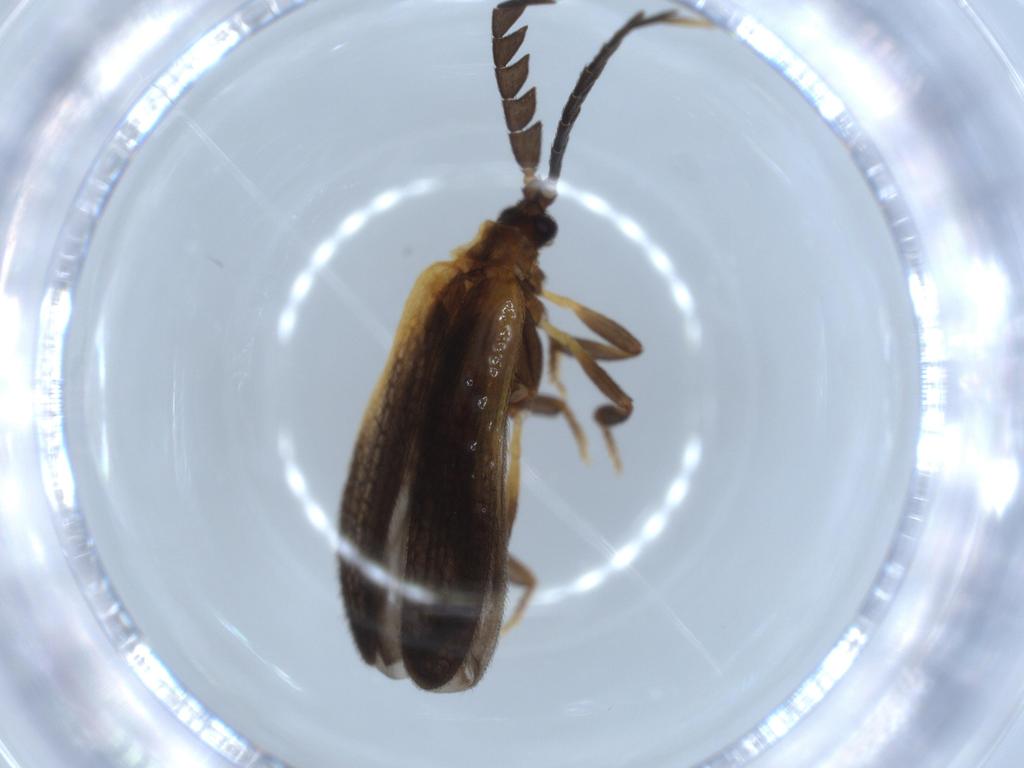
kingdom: Animalia
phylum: Arthropoda
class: Insecta
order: Coleoptera
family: Lycidae
